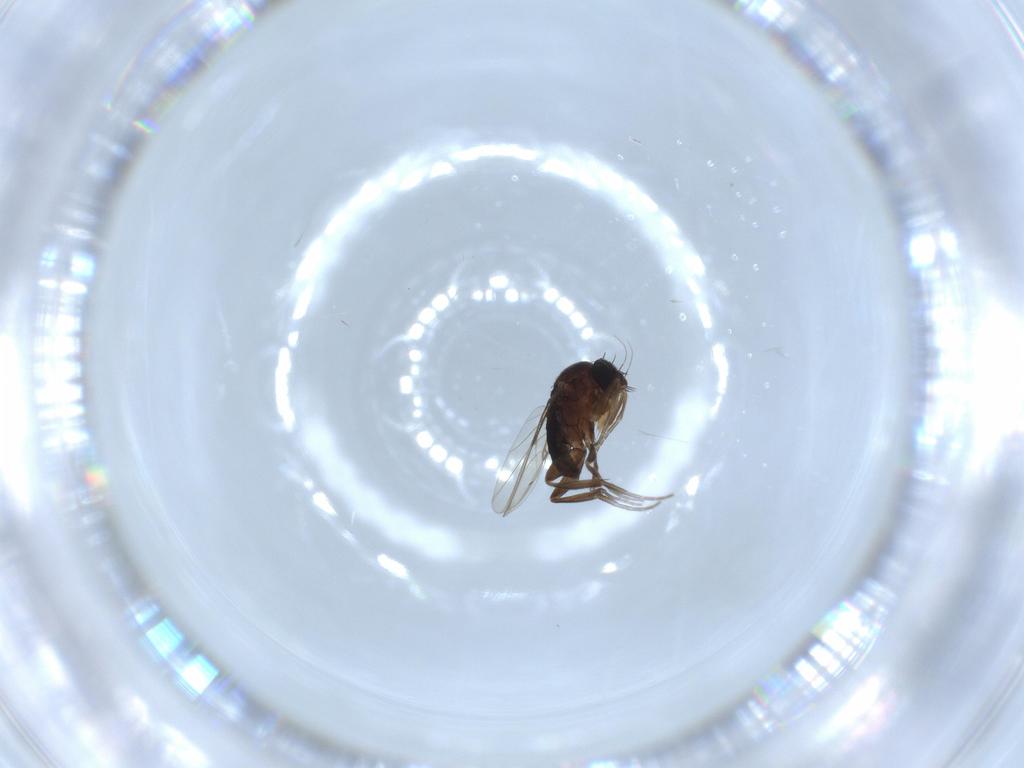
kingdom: Animalia
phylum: Arthropoda
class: Insecta
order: Diptera
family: Phoridae
